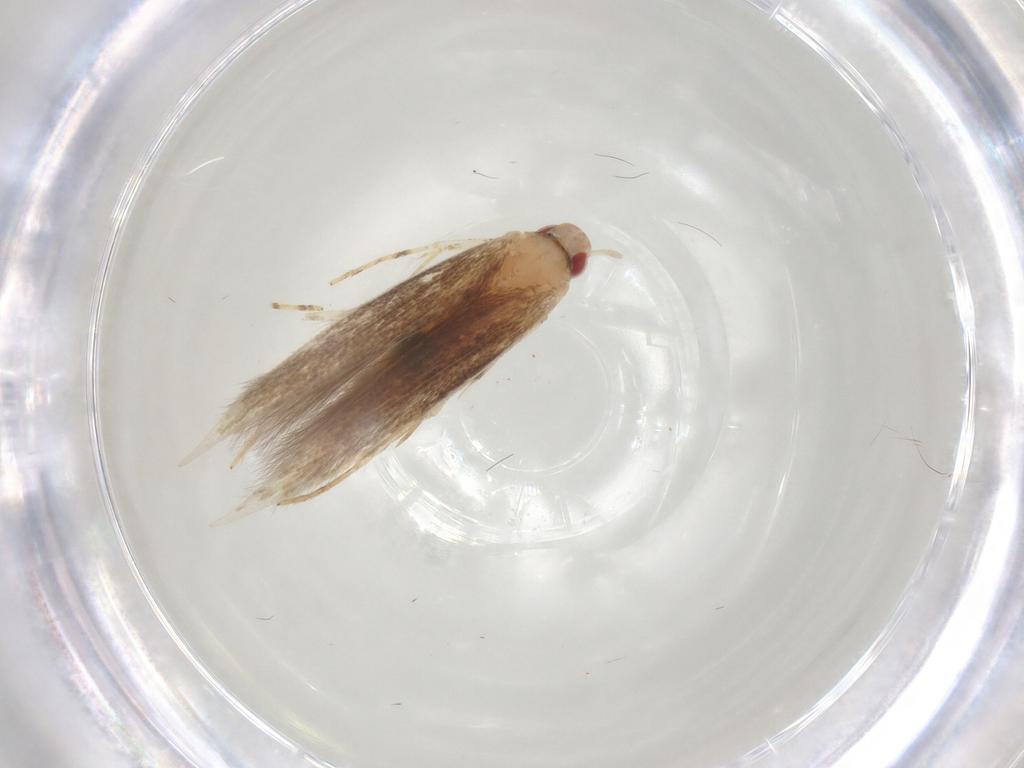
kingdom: Animalia
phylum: Arthropoda
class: Insecta
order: Lepidoptera
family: Cosmopterigidae
